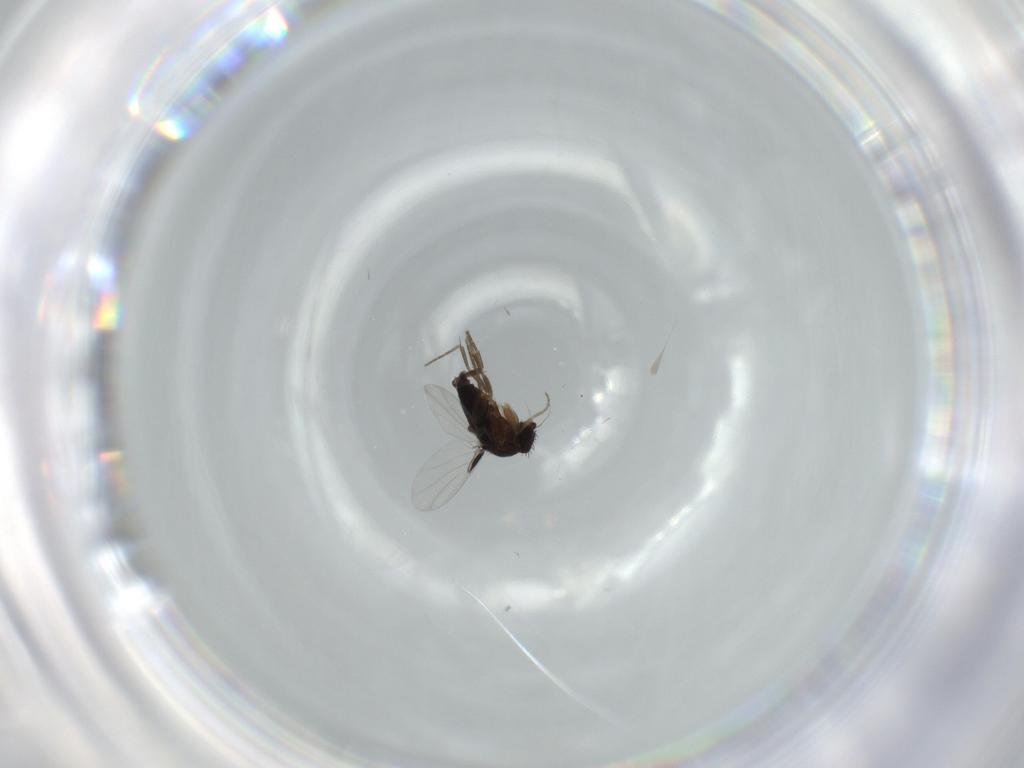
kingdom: Animalia
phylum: Arthropoda
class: Insecta
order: Diptera
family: Phoridae
